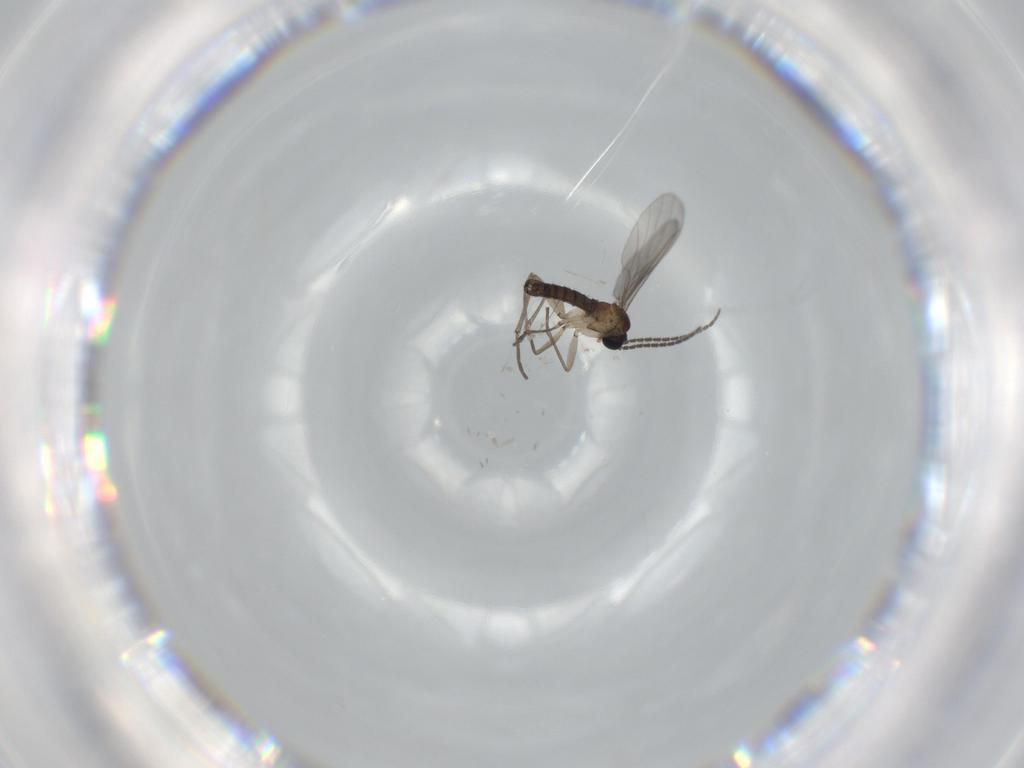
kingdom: Animalia
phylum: Arthropoda
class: Insecta
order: Diptera
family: Sciaridae
